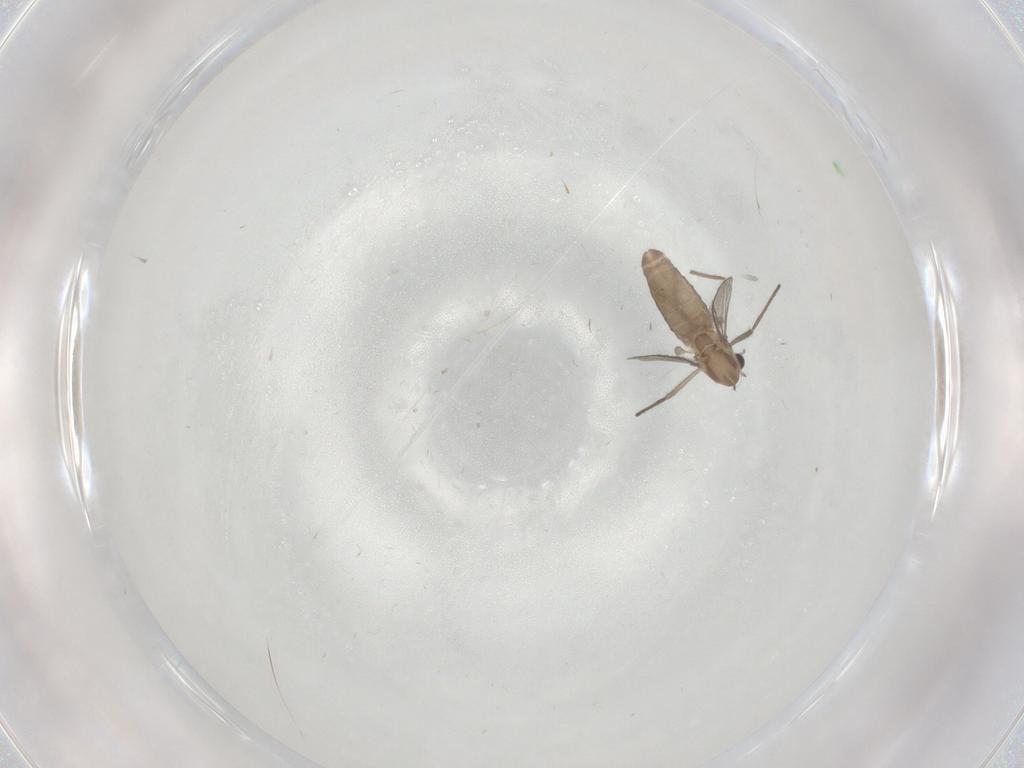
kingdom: Animalia
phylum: Arthropoda
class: Insecta
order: Diptera
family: Chironomidae
